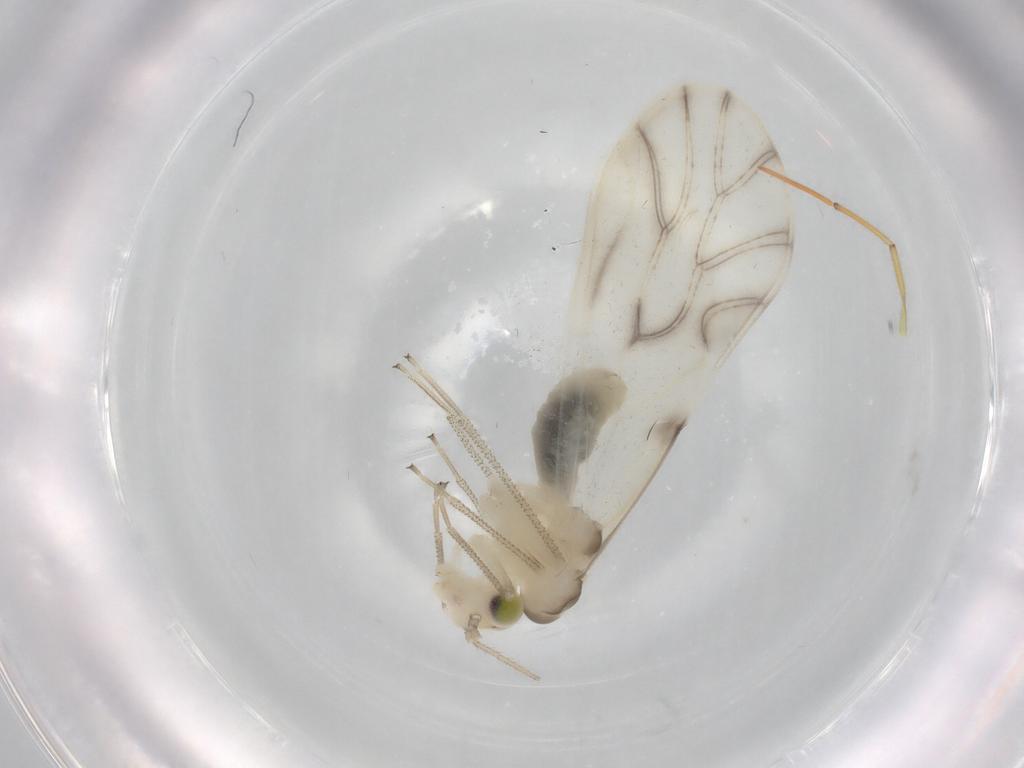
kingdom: Animalia
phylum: Arthropoda
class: Insecta
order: Psocodea
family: Caeciliusidae
